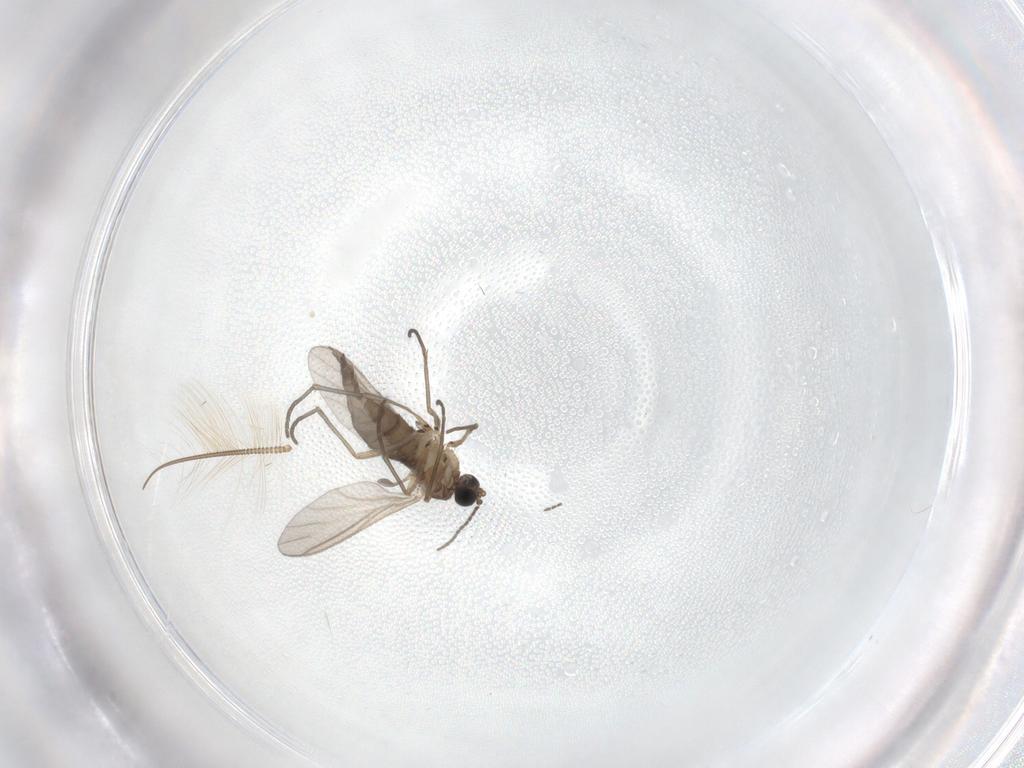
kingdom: Animalia
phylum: Arthropoda
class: Insecta
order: Diptera
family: Sciaridae
